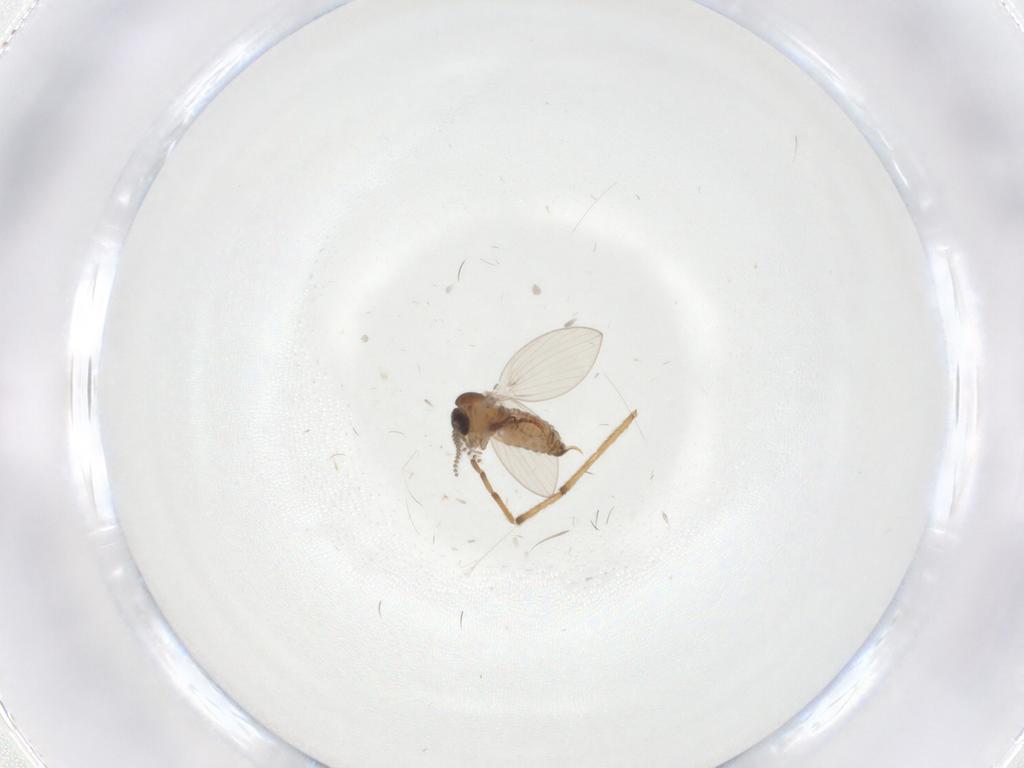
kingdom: Animalia
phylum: Arthropoda
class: Insecta
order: Diptera
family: Psychodidae
